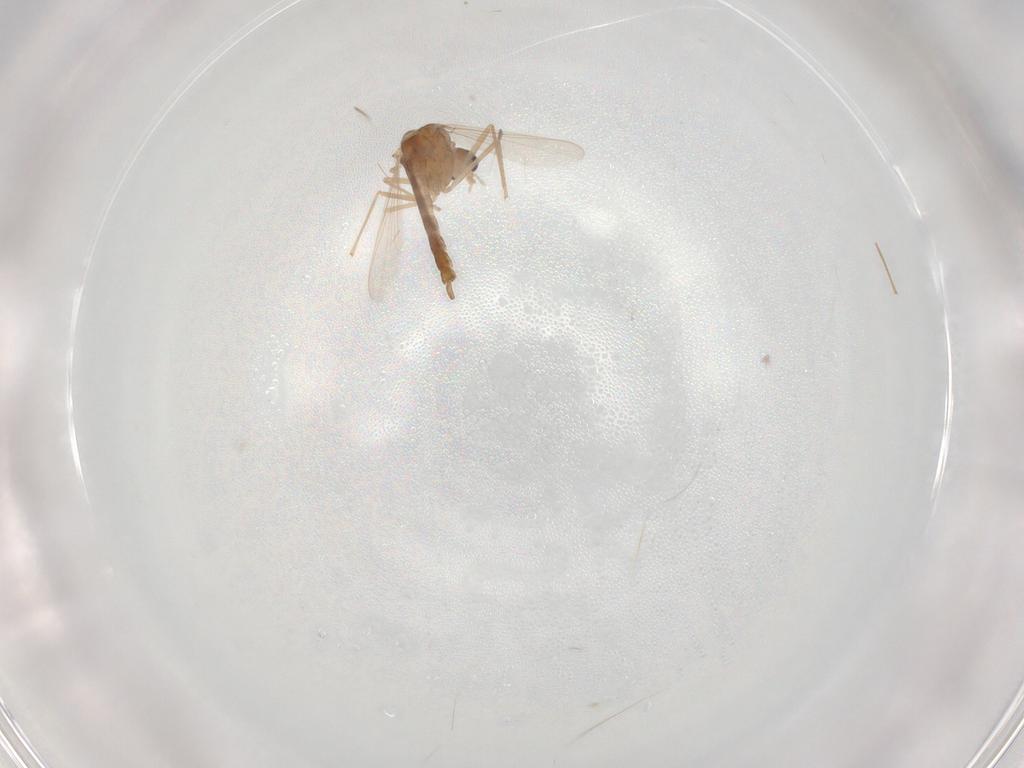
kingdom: Animalia
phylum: Arthropoda
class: Insecta
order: Diptera
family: Chironomidae
